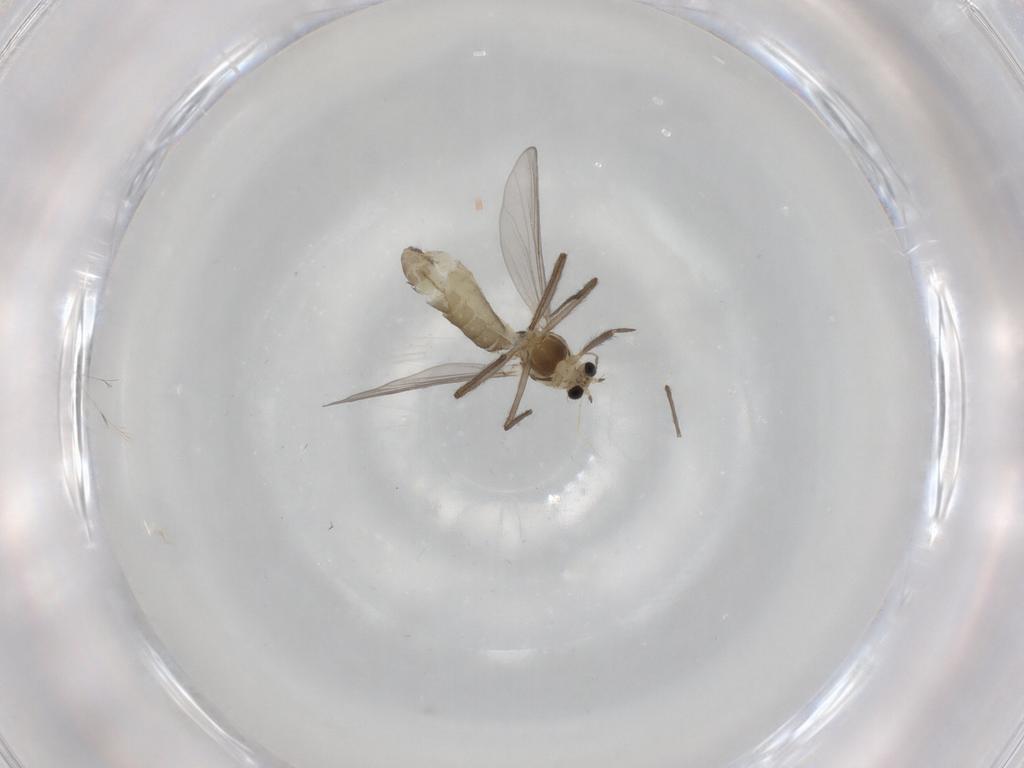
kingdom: Animalia
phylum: Arthropoda
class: Insecta
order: Diptera
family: Chironomidae
